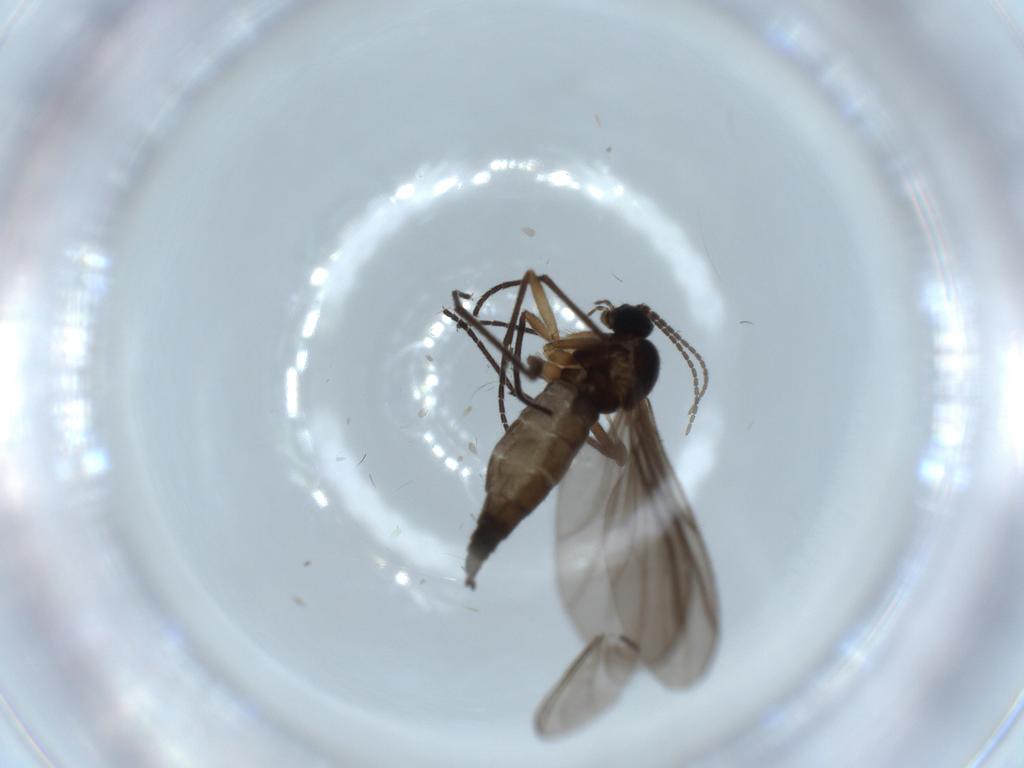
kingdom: Animalia
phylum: Arthropoda
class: Insecta
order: Diptera
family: Sciaridae
